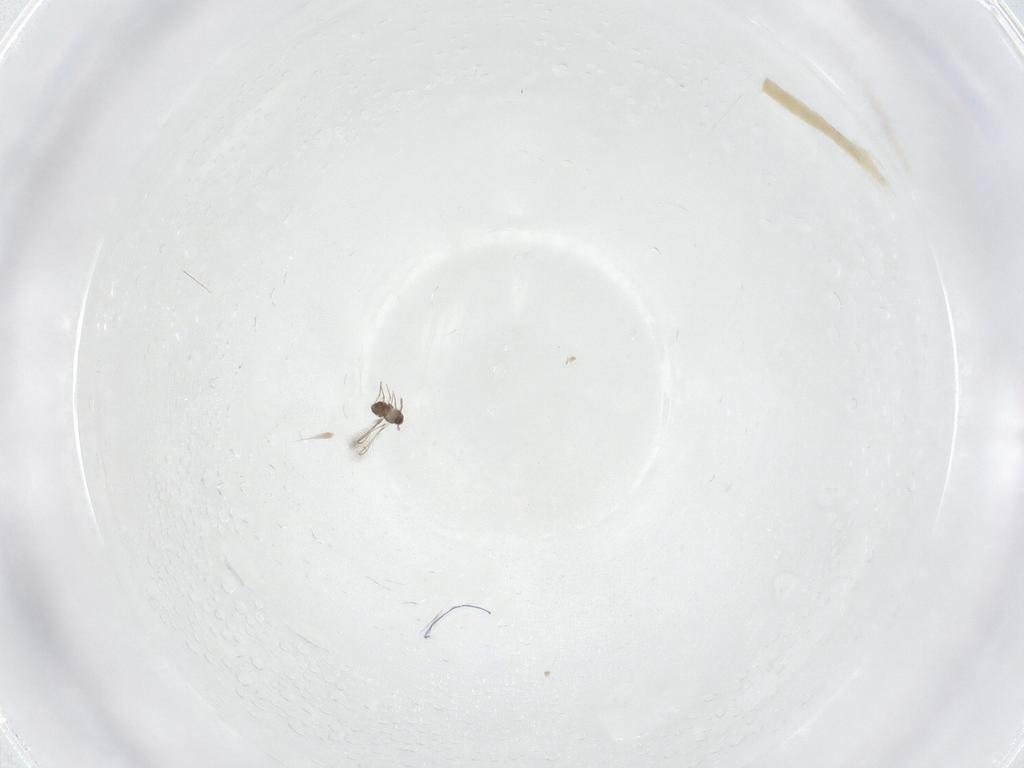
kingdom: Animalia
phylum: Arthropoda
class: Insecta
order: Hymenoptera
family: Mymaridae
